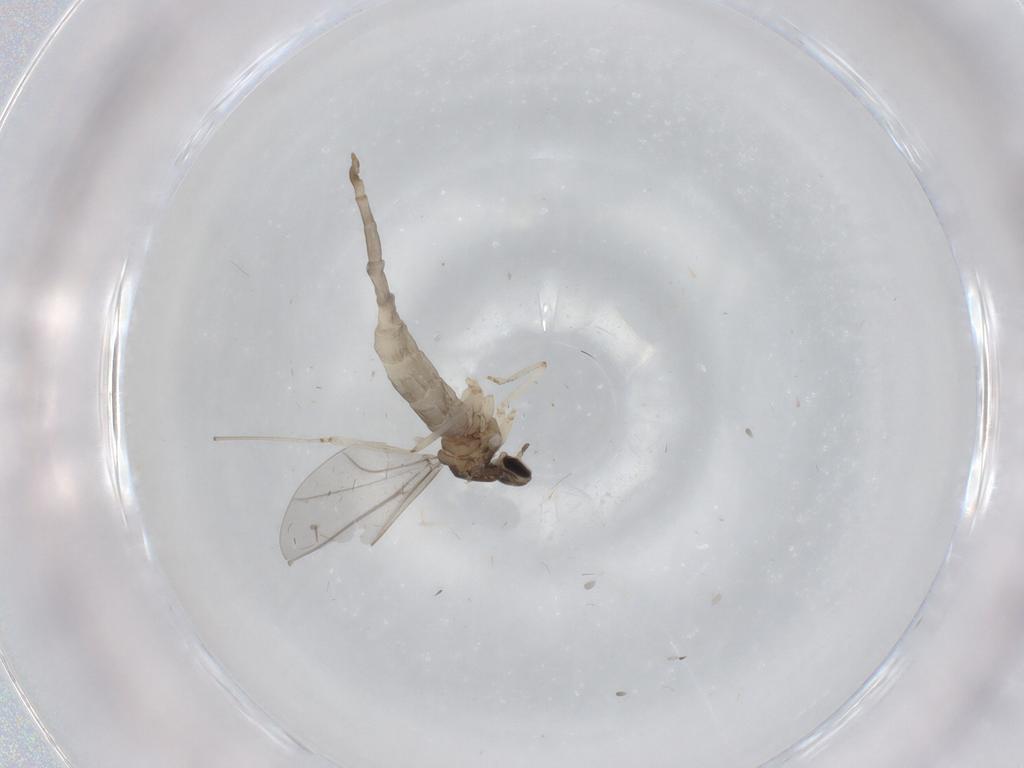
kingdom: Animalia
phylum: Arthropoda
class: Insecta
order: Diptera
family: Cecidomyiidae
